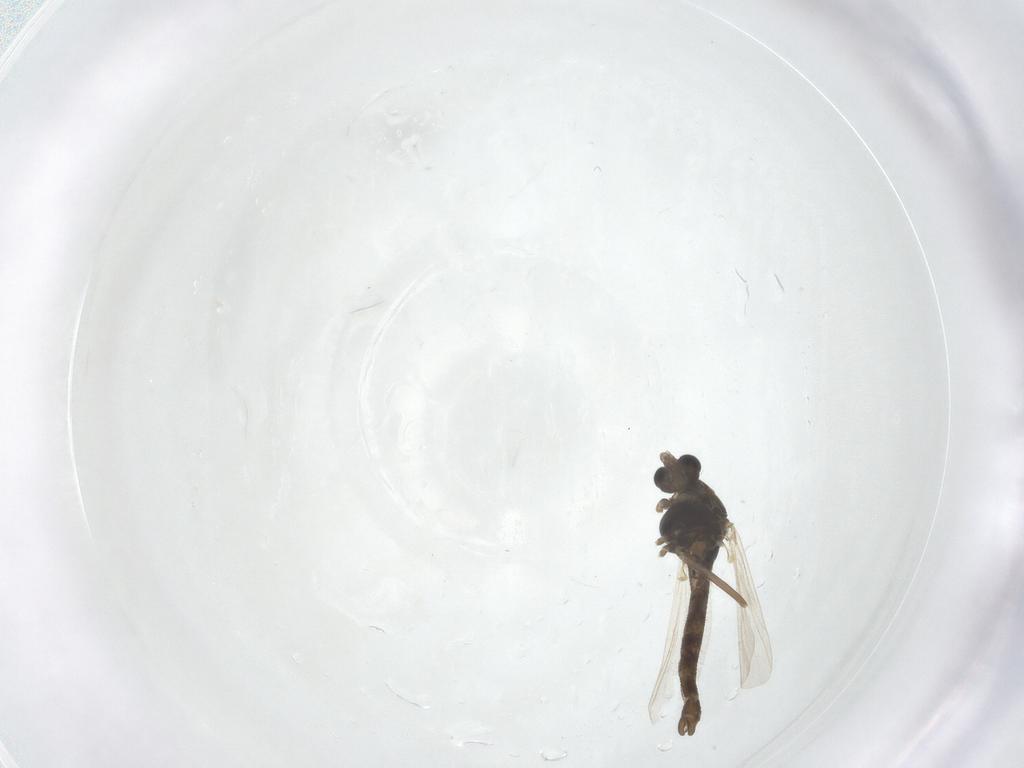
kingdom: Animalia
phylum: Arthropoda
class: Insecta
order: Diptera
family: Chironomidae
